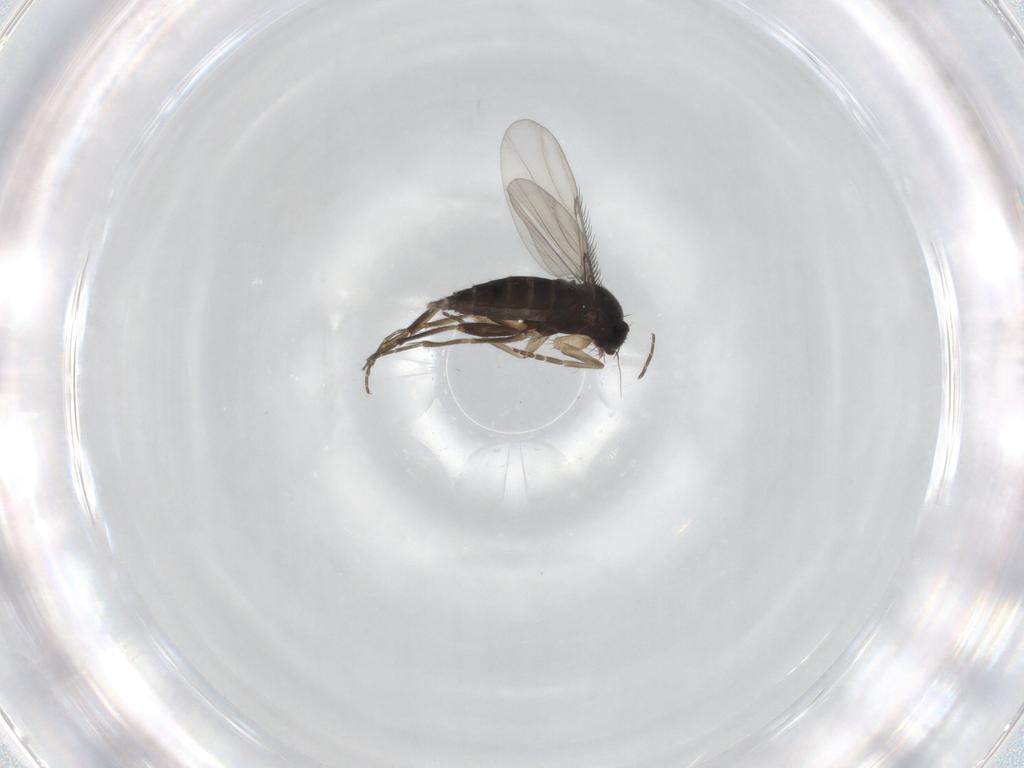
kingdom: Animalia
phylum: Arthropoda
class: Insecta
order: Diptera
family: Phoridae
